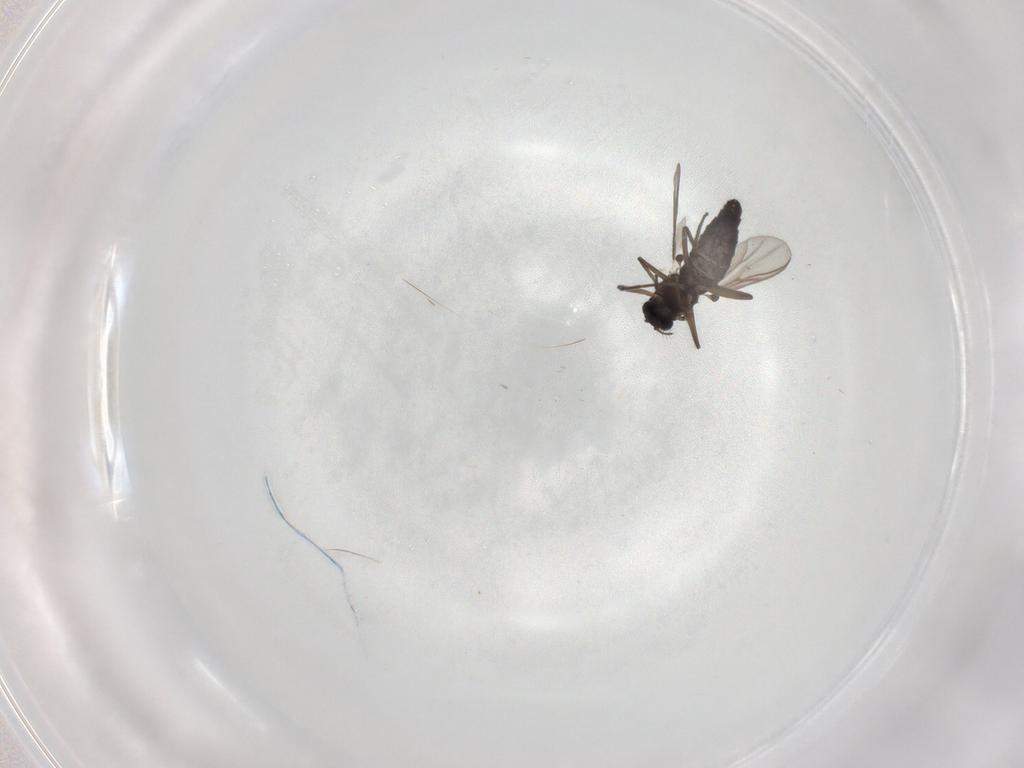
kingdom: Animalia
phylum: Arthropoda
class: Insecta
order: Diptera
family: Chironomidae
